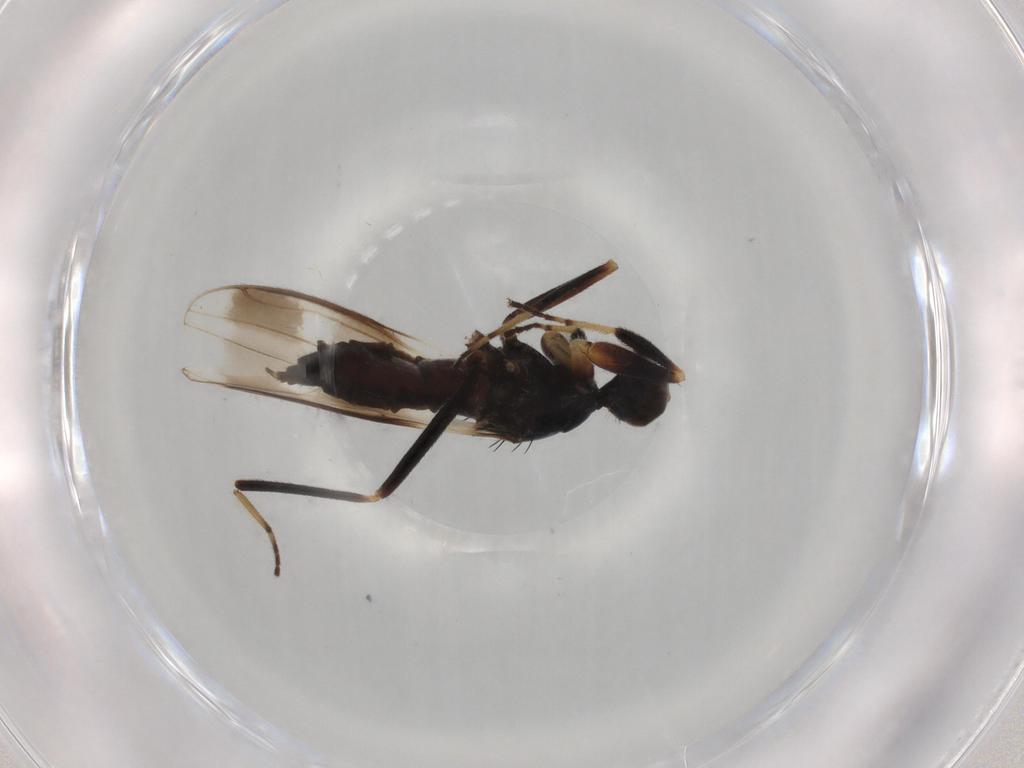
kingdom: Animalia
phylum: Arthropoda
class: Insecta
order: Diptera
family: Hybotidae
